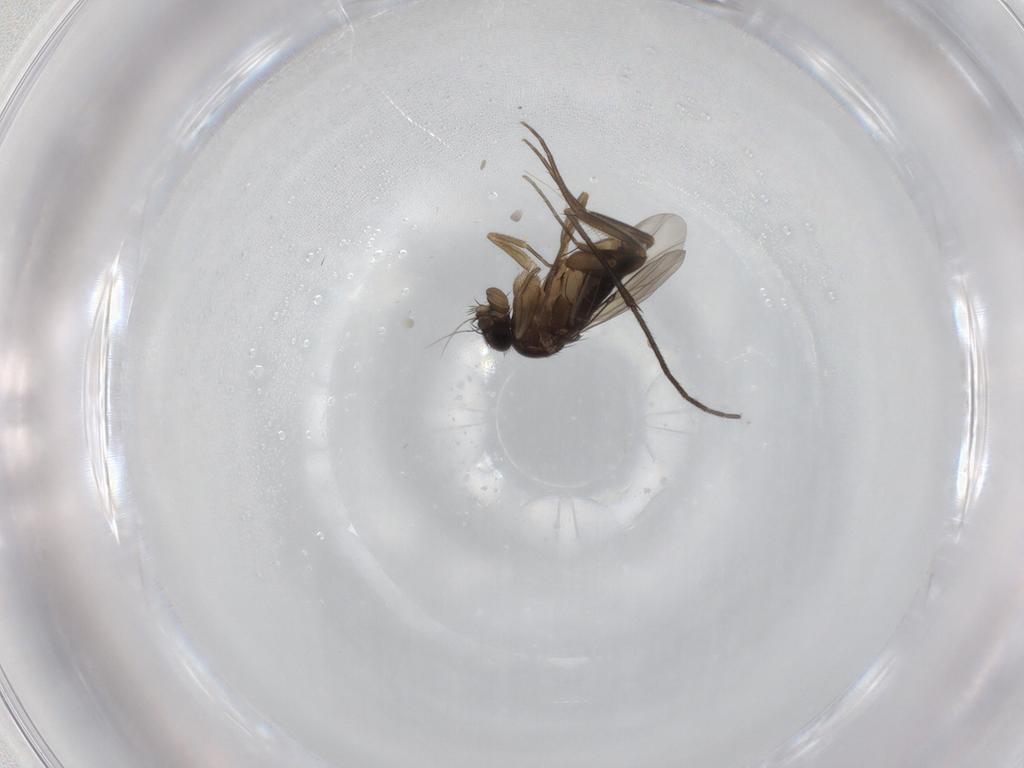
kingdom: Animalia
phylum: Arthropoda
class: Insecta
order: Diptera
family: Phoridae
